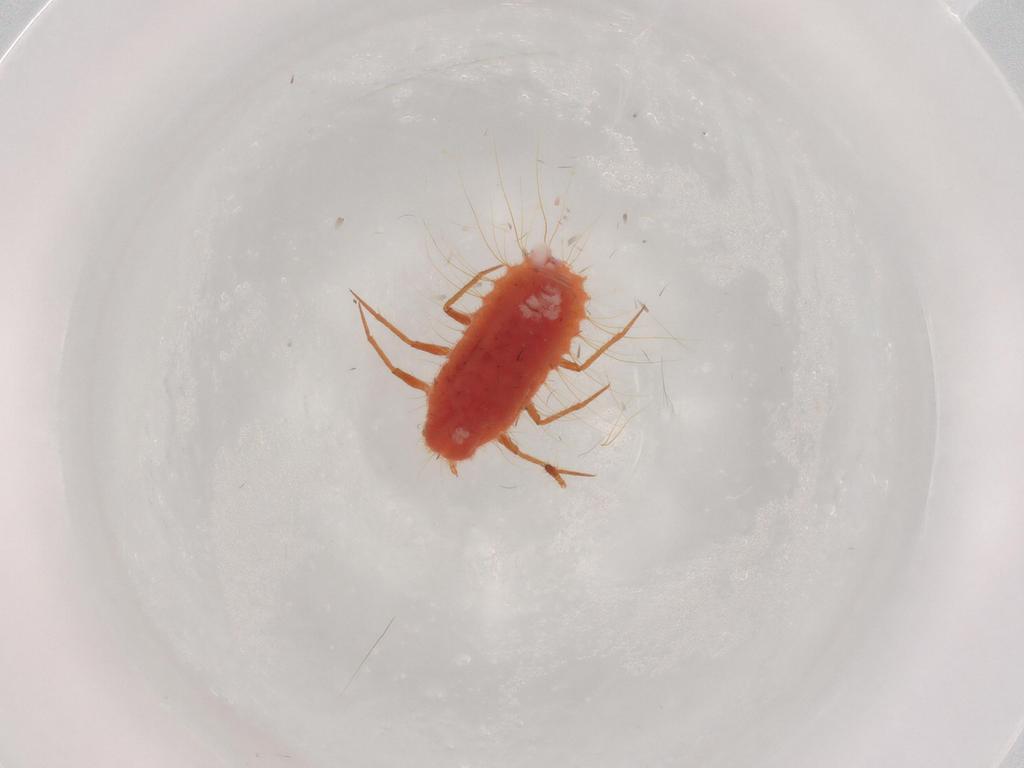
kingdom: Animalia
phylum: Arthropoda
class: Insecta
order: Hemiptera
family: Monophlebidae
